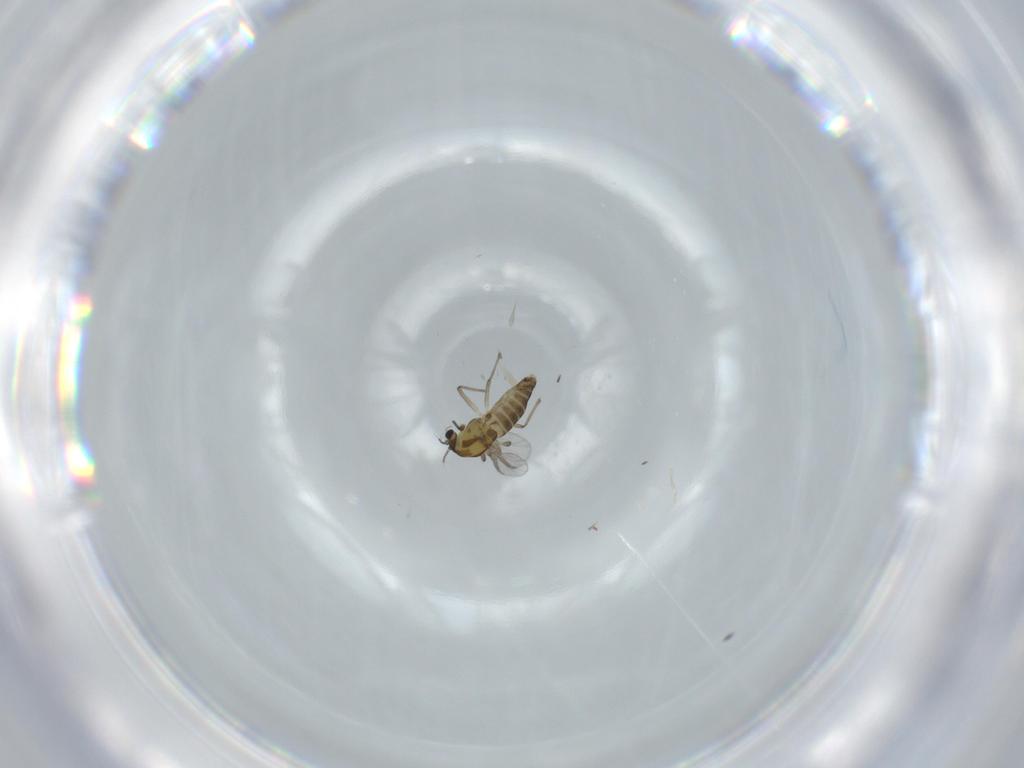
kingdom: Animalia
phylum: Arthropoda
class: Insecta
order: Diptera
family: Chironomidae
